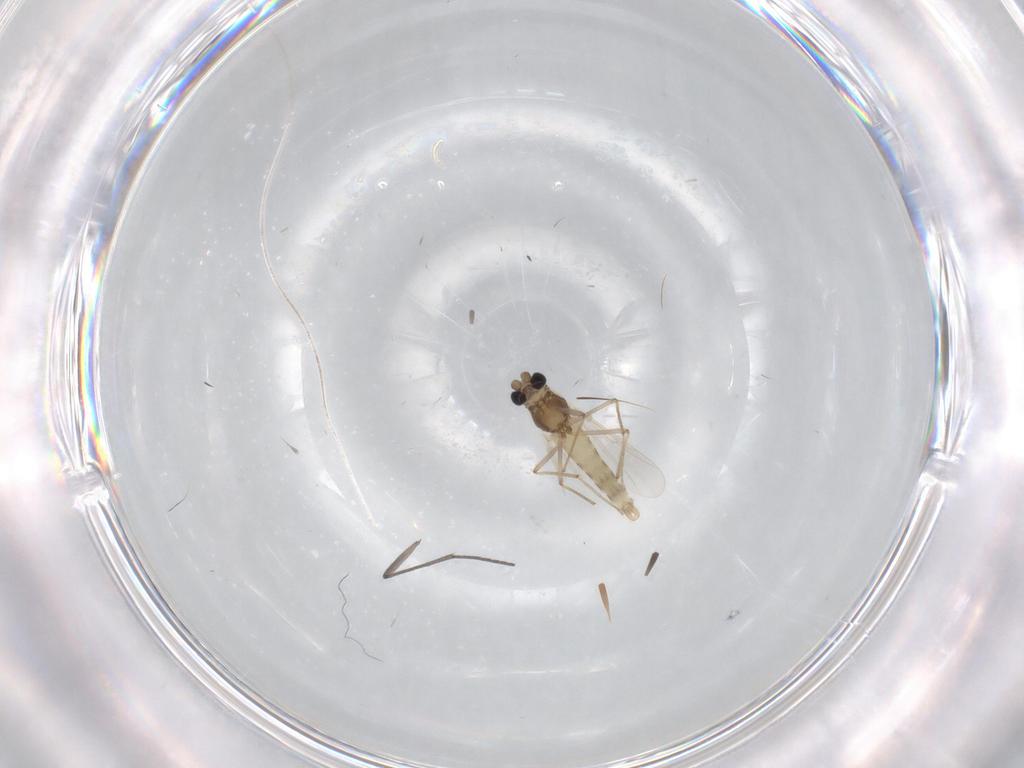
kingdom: Animalia
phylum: Arthropoda
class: Insecta
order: Diptera
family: Chironomidae
